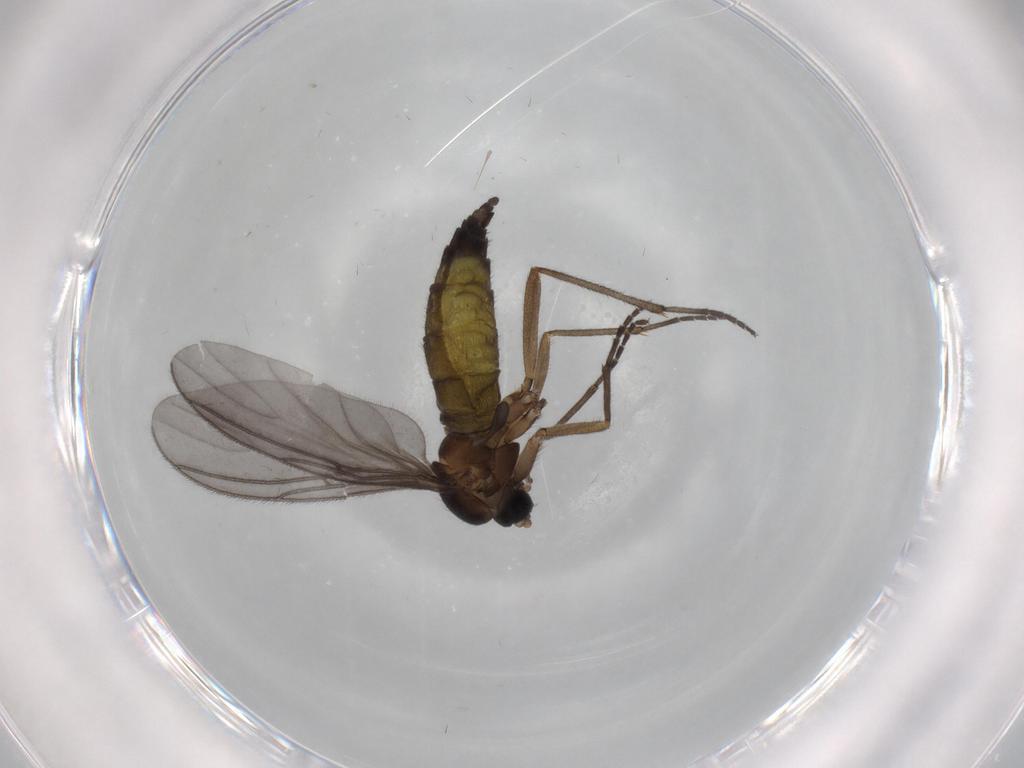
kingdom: Animalia
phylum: Arthropoda
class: Insecta
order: Diptera
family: Sciaridae
